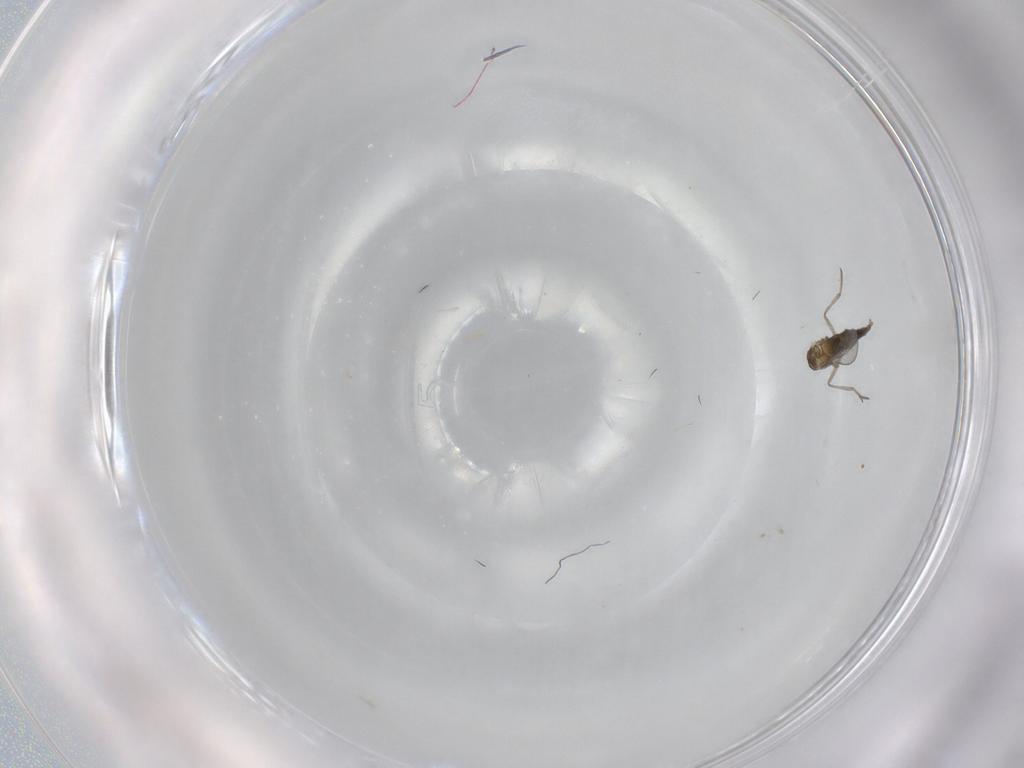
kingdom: Animalia
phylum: Arthropoda
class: Insecta
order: Diptera
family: Cecidomyiidae
